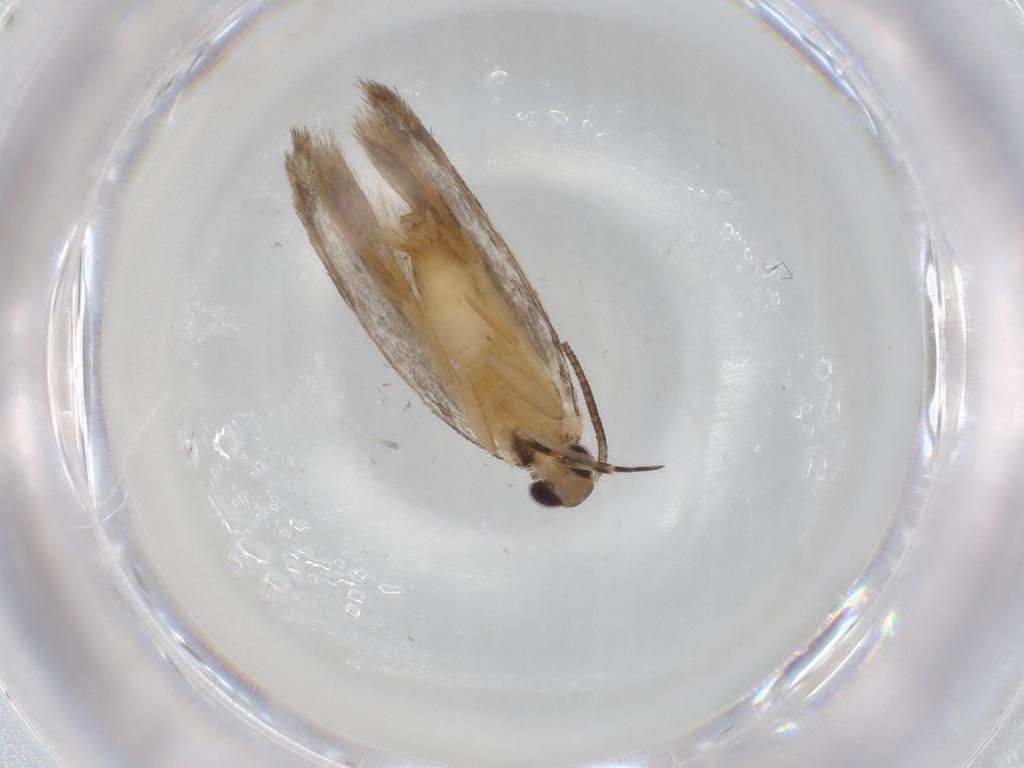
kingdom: Animalia
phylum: Arthropoda
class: Insecta
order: Lepidoptera
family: Autostichidae
